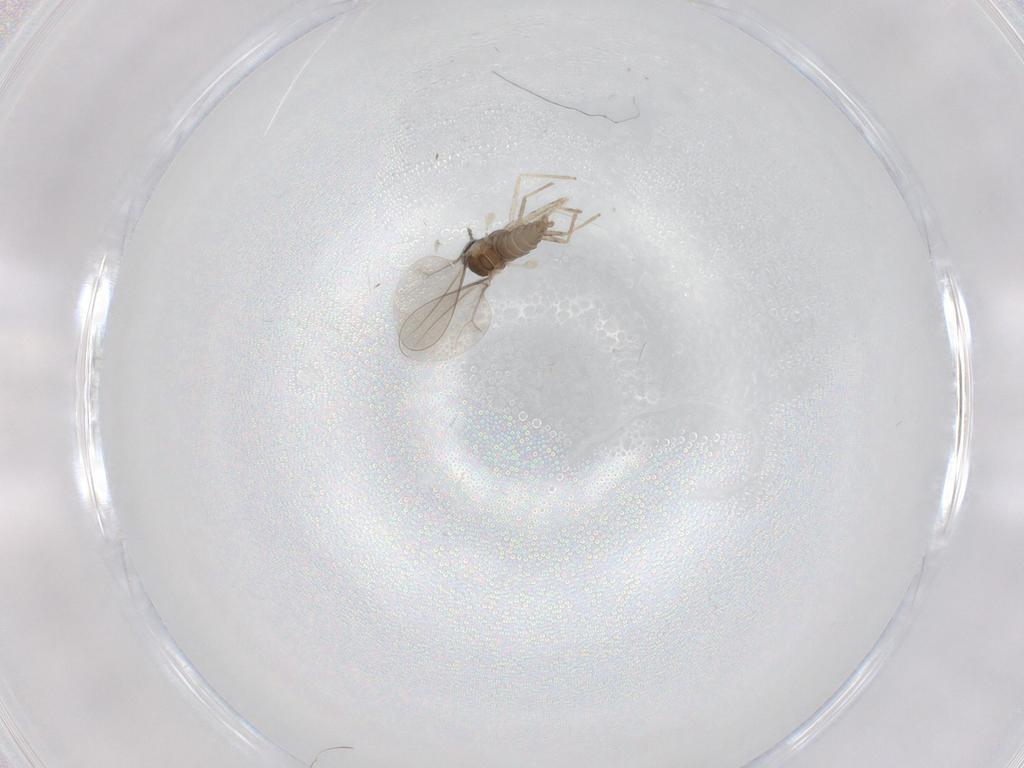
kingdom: Animalia
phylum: Arthropoda
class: Insecta
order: Diptera
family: Cecidomyiidae
